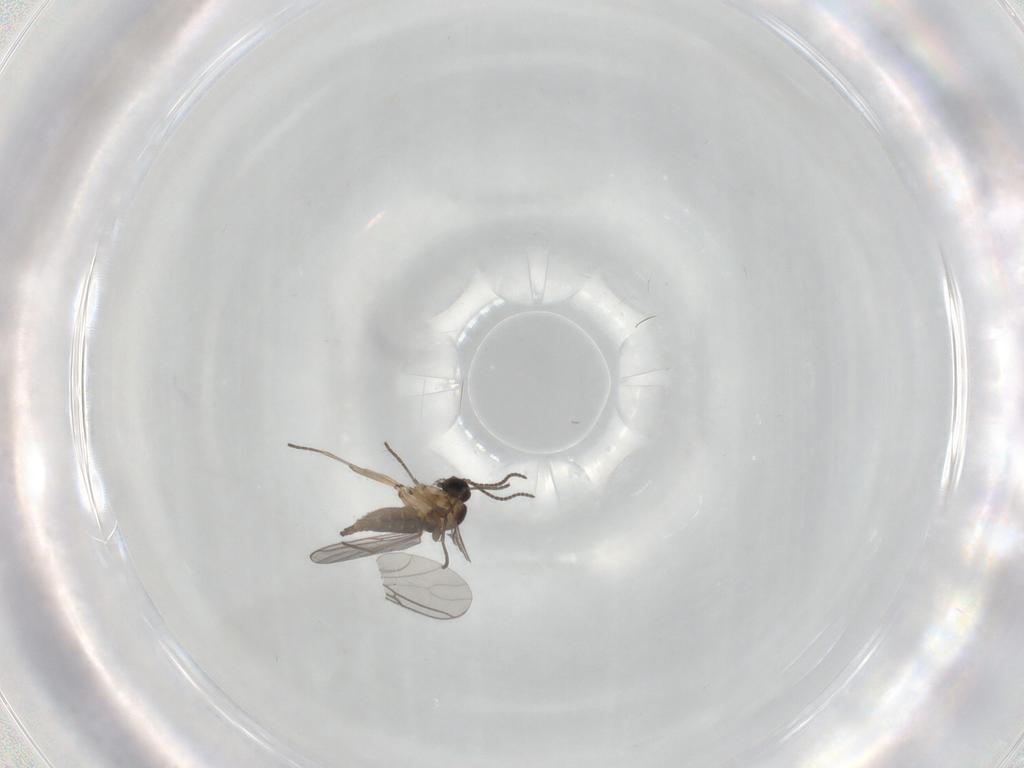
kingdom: Animalia
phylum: Arthropoda
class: Insecta
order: Diptera
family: Sciaridae
